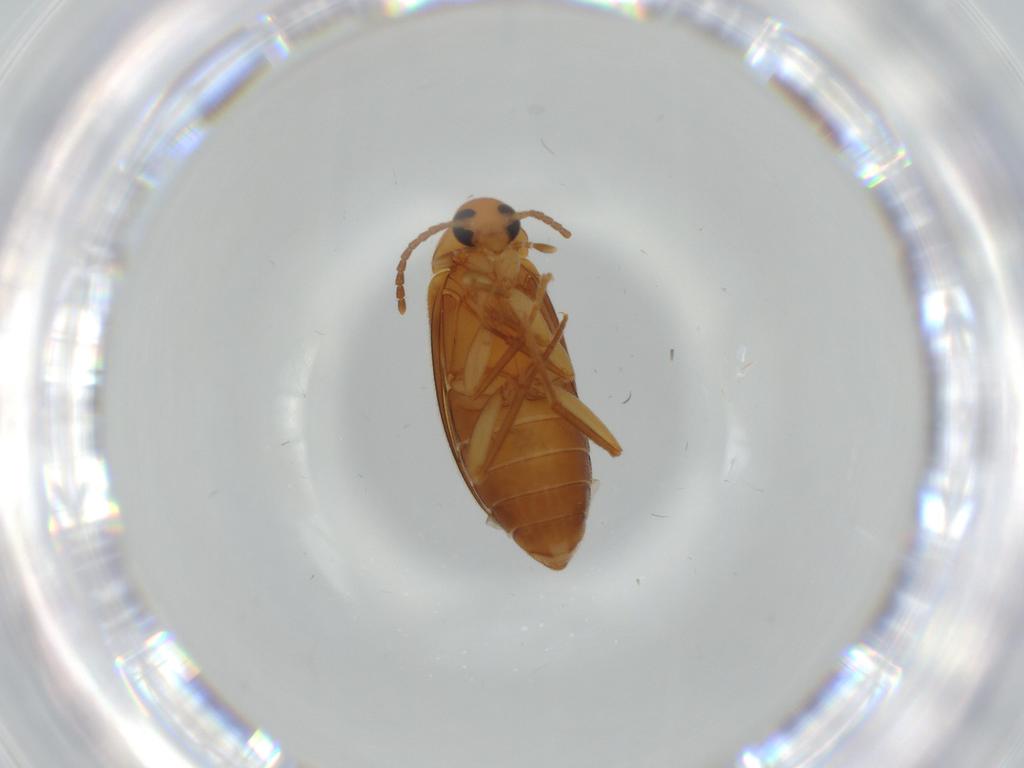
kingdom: Animalia
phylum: Arthropoda
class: Insecta
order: Coleoptera
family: Scraptiidae
